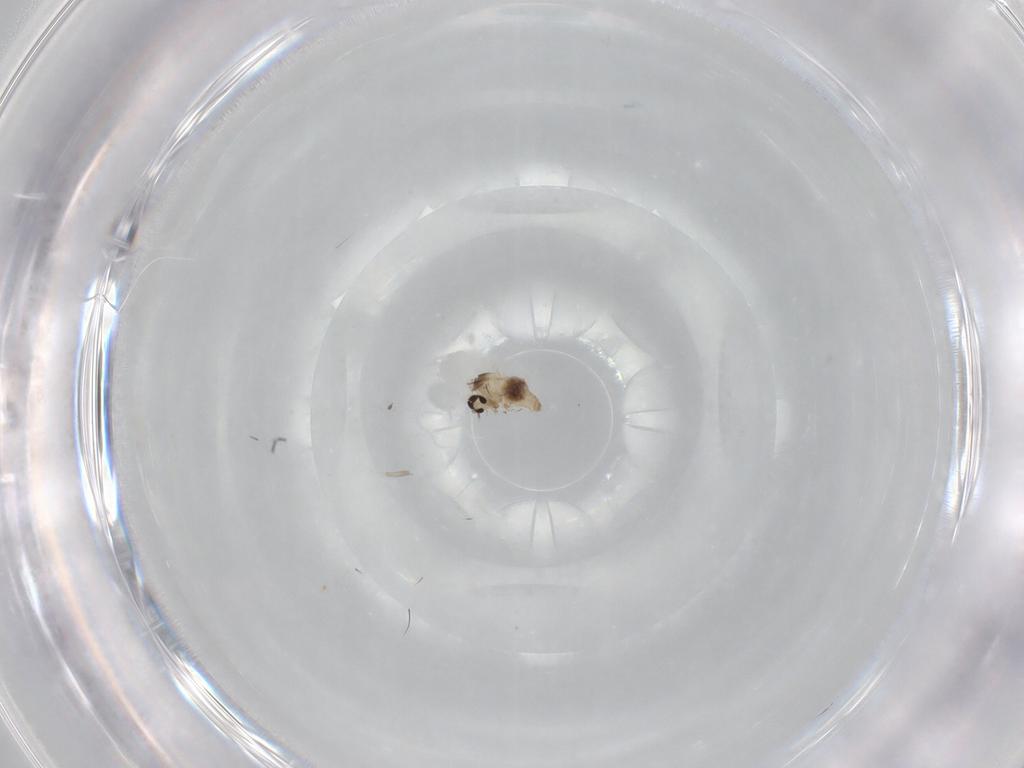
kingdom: Animalia
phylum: Arthropoda
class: Insecta
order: Diptera
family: Cecidomyiidae
